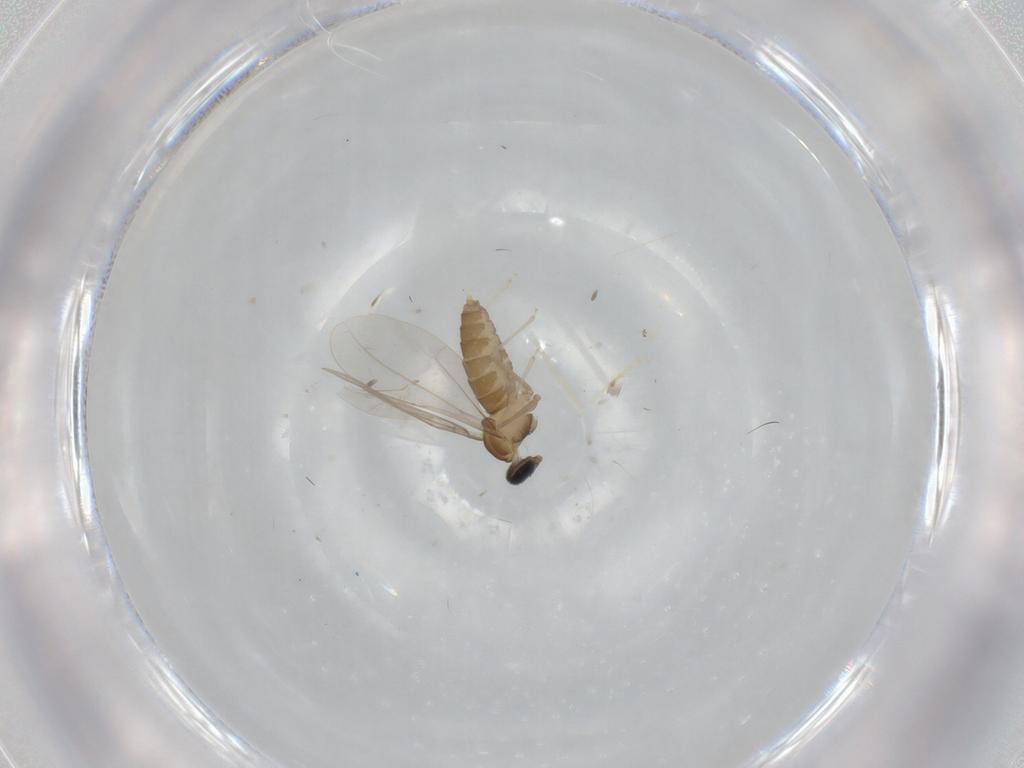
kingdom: Animalia
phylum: Arthropoda
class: Insecta
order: Diptera
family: Cecidomyiidae
